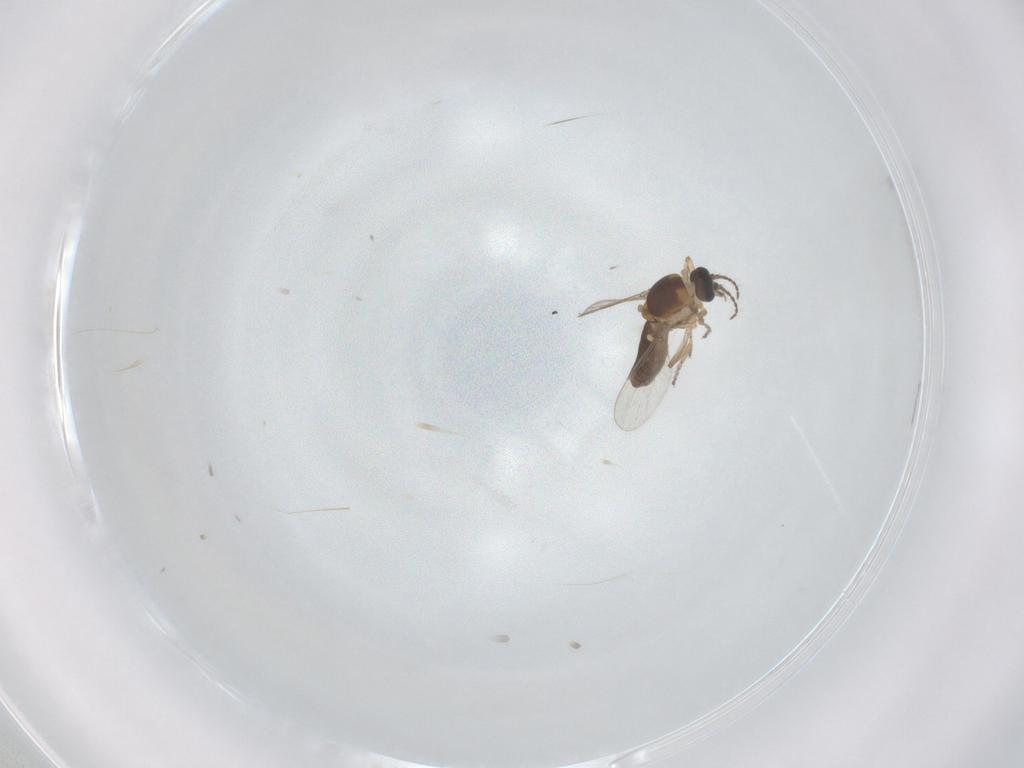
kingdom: Animalia
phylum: Arthropoda
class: Insecta
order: Diptera
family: Ceratopogonidae
